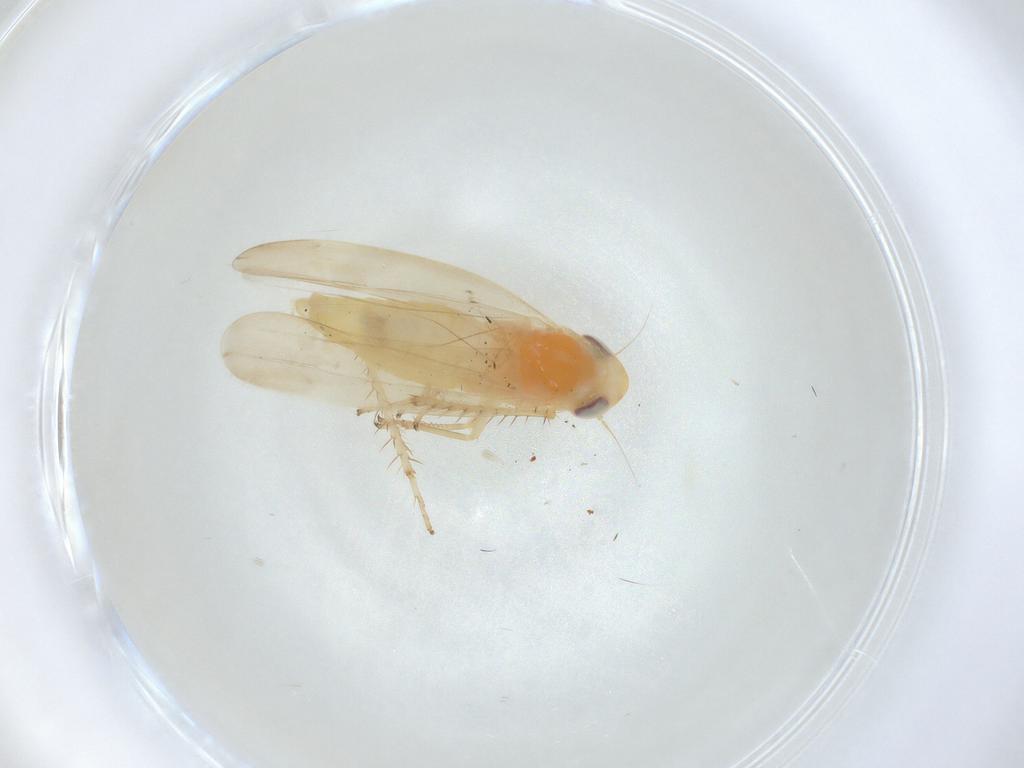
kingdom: Animalia
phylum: Arthropoda
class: Insecta
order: Hemiptera
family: Cicadellidae
